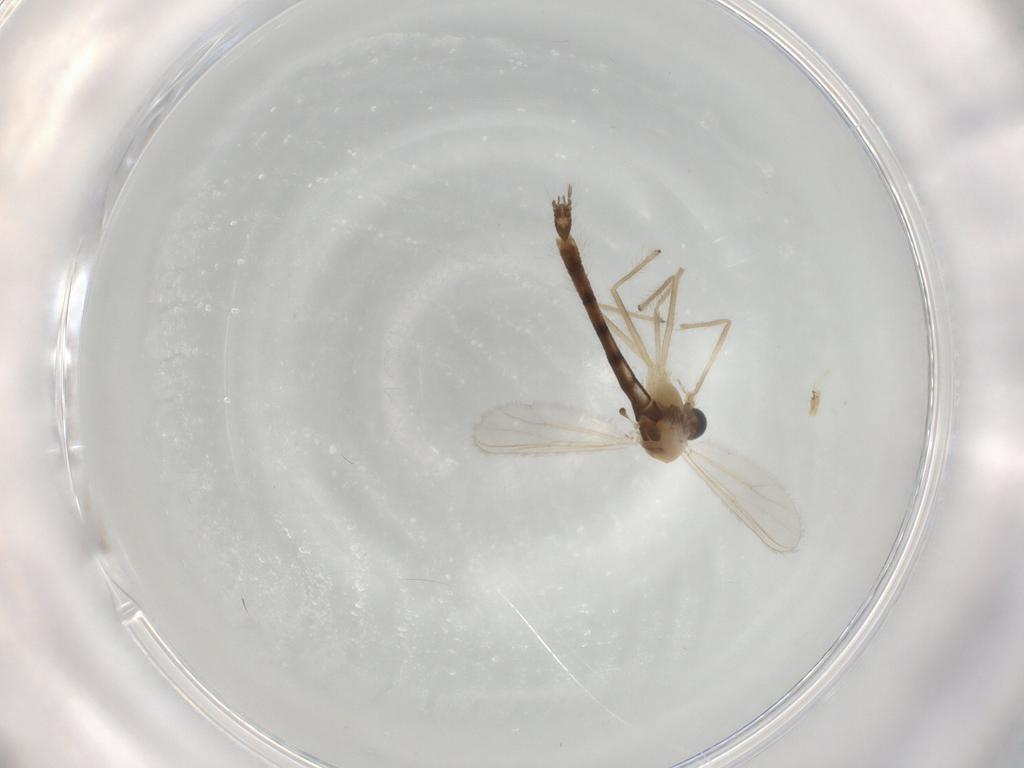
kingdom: Animalia
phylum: Arthropoda
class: Insecta
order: Diptera
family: Chironomidae
